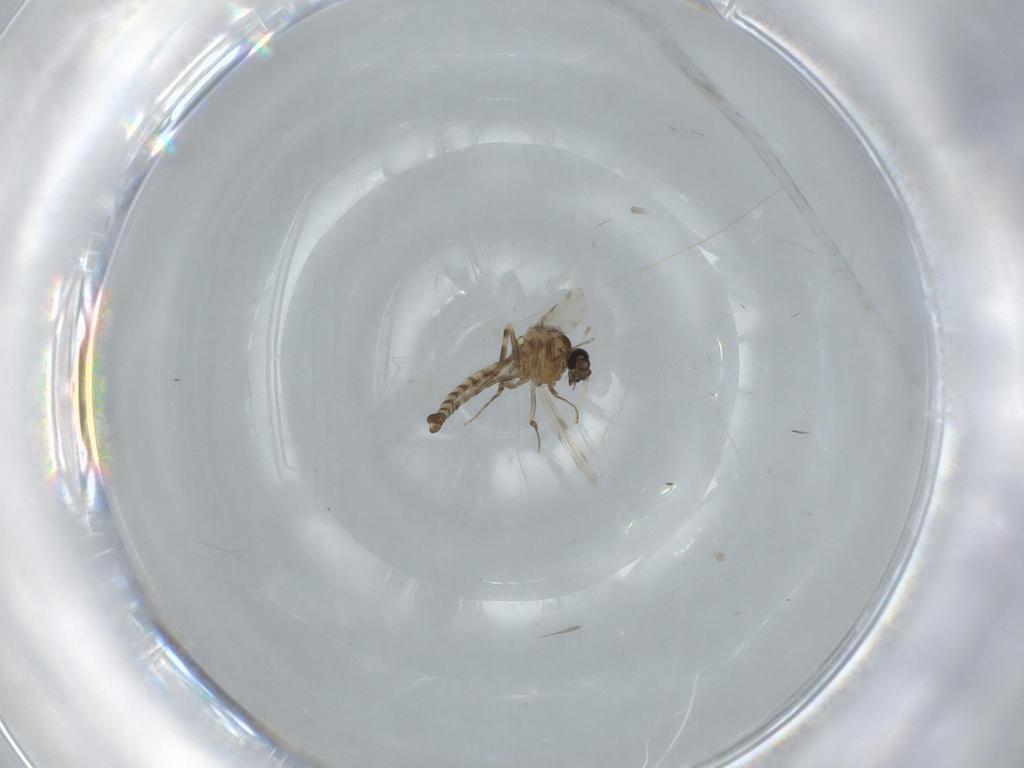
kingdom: Animalia
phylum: Arthropoda
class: Insecta
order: Diptera
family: Ceratopogonidae
